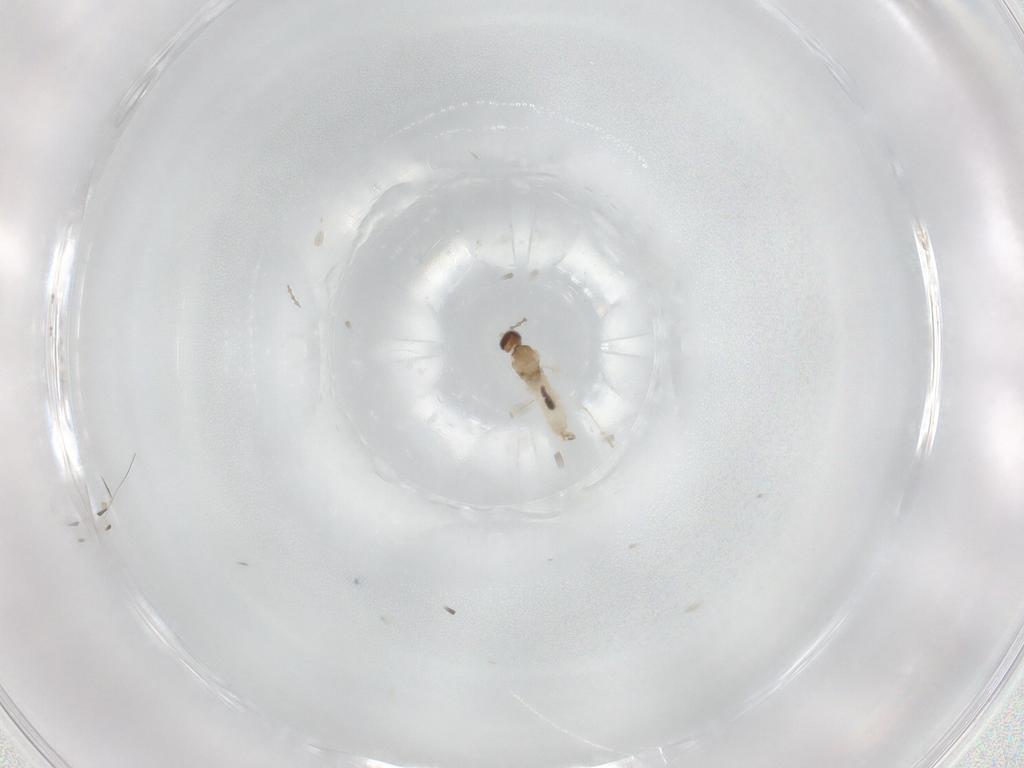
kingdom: Animalia
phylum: Arthropoda
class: Insecta
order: Diptera
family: Cecidomyiidae
